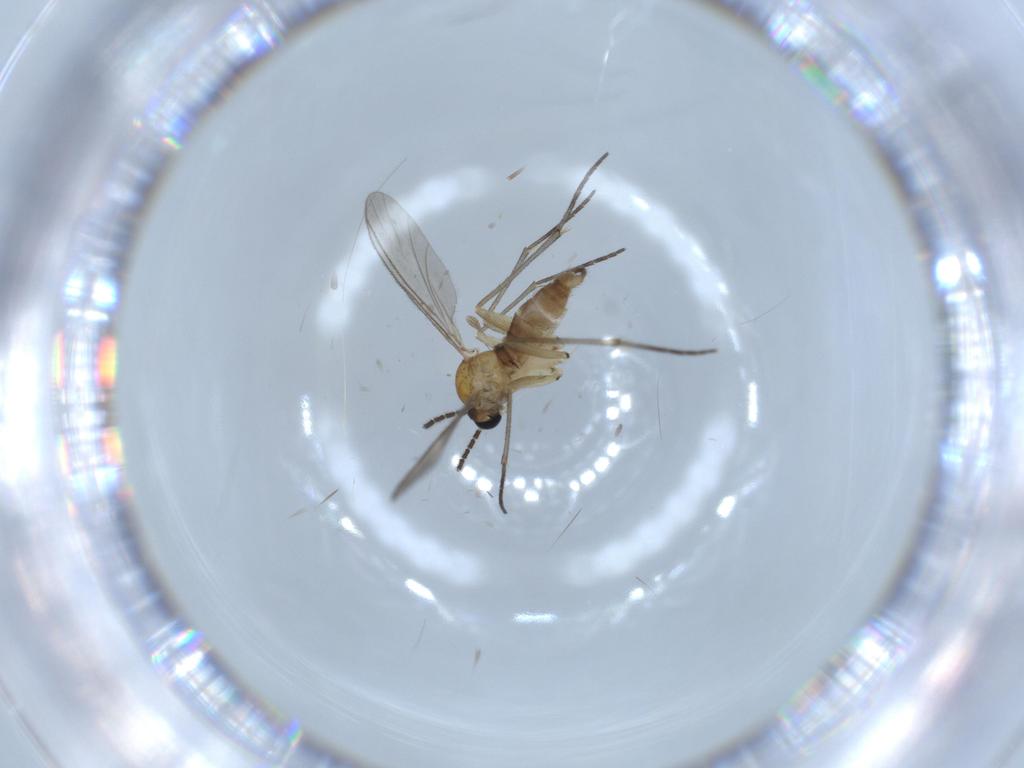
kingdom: Animalia
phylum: Arthropoda
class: Insecta
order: Diptera
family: Sciaridae
